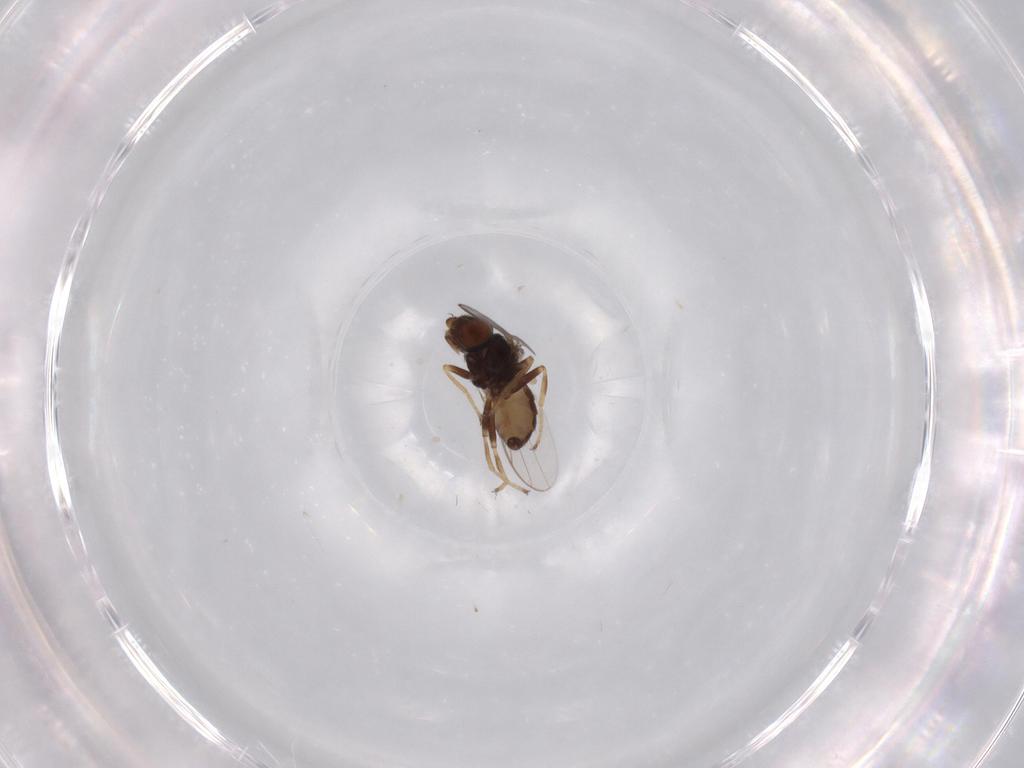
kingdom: Animalia
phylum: Arthropoda
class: Insecta
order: Diptera
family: Chloropidae
